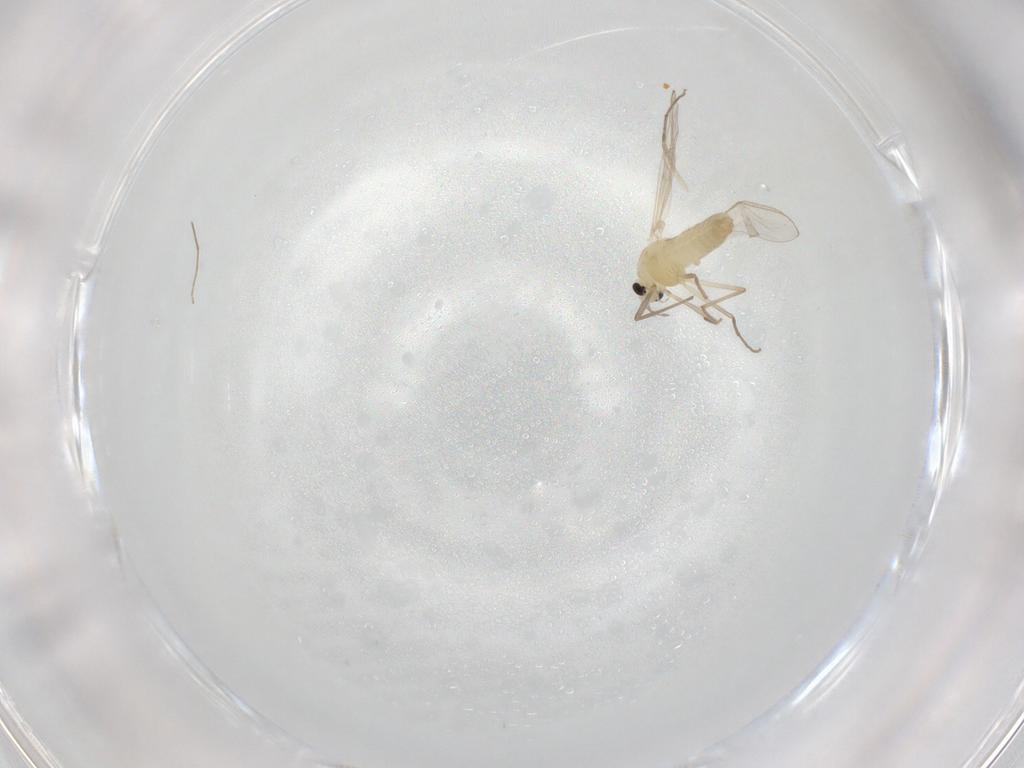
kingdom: Animalia
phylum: Arthropoda
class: Insecta
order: Diptera
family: Chironomidae
